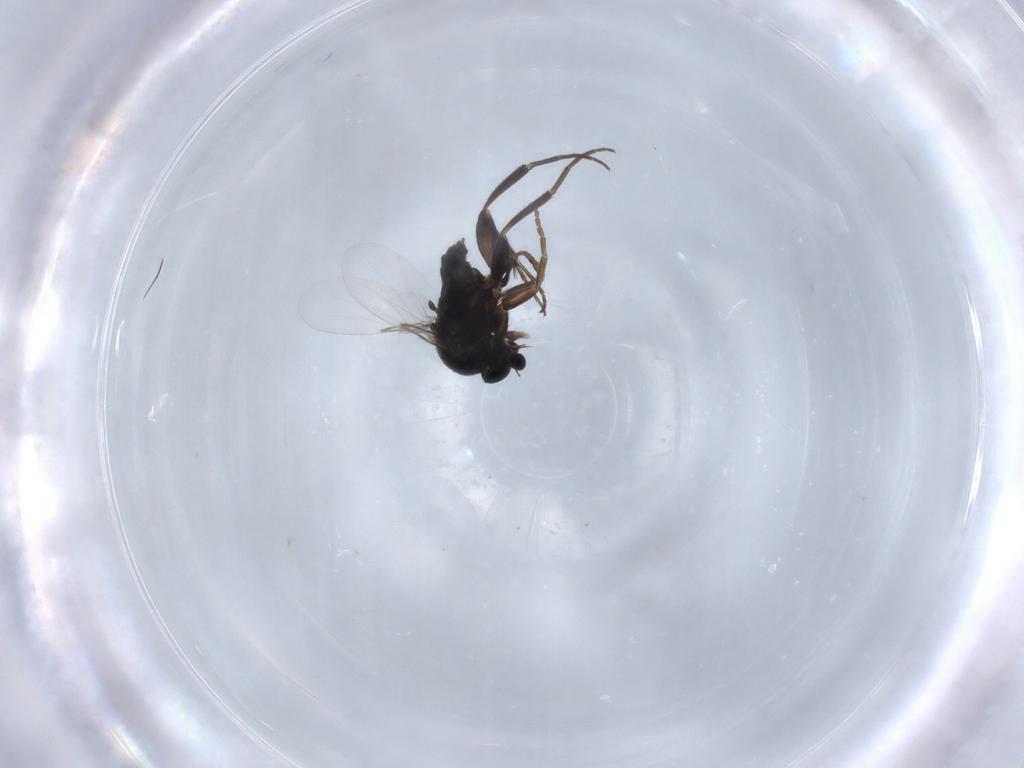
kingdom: Animalia
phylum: Arthropoda
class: Insecta
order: Diptera
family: Phoridae
